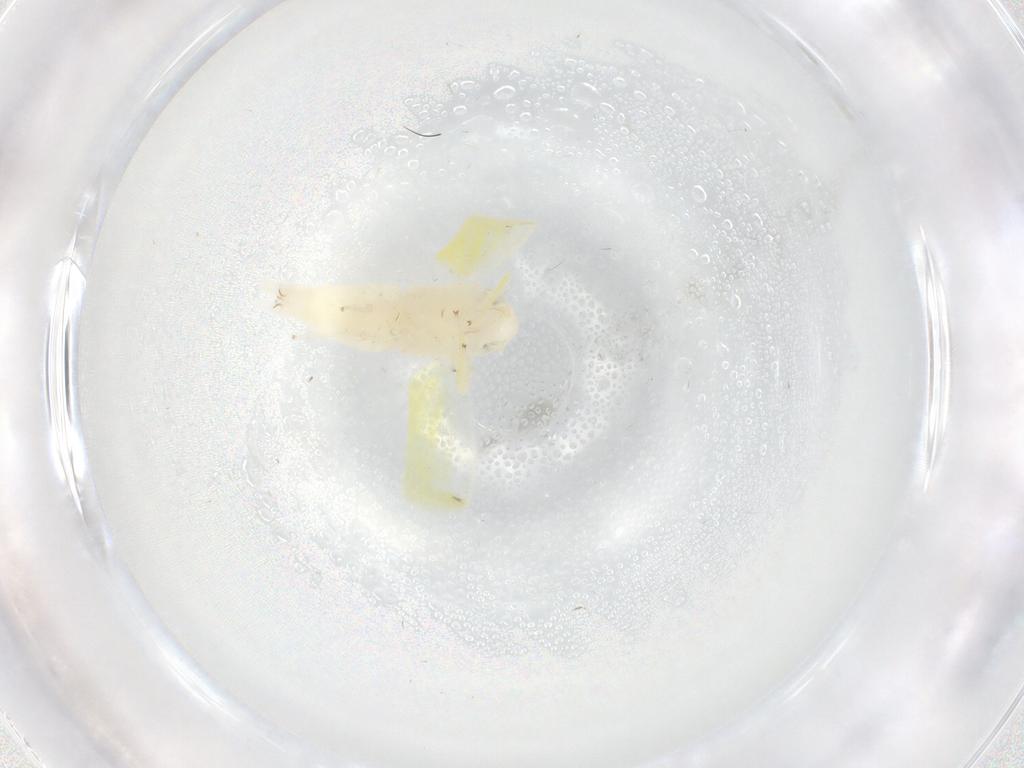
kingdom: Animalia
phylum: Arthropoda
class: Insecta
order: Hemiptera
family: Cicadellidae
